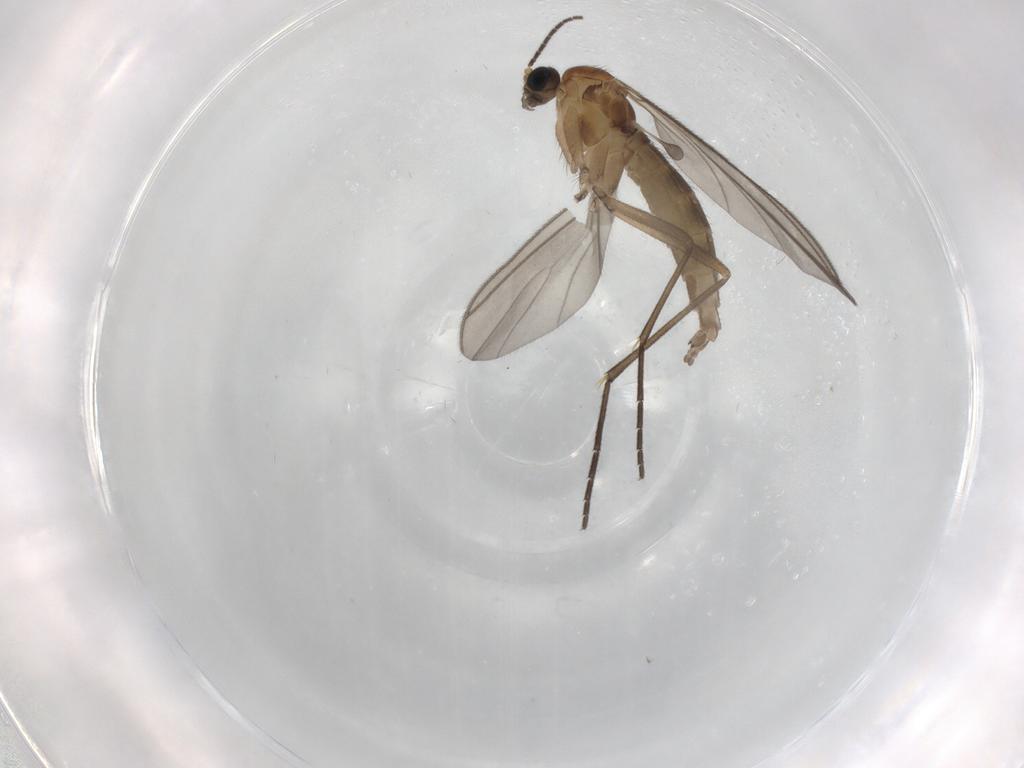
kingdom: Animalia
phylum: Arthropoda
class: Insecta
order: Diptera
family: Sciaridae
